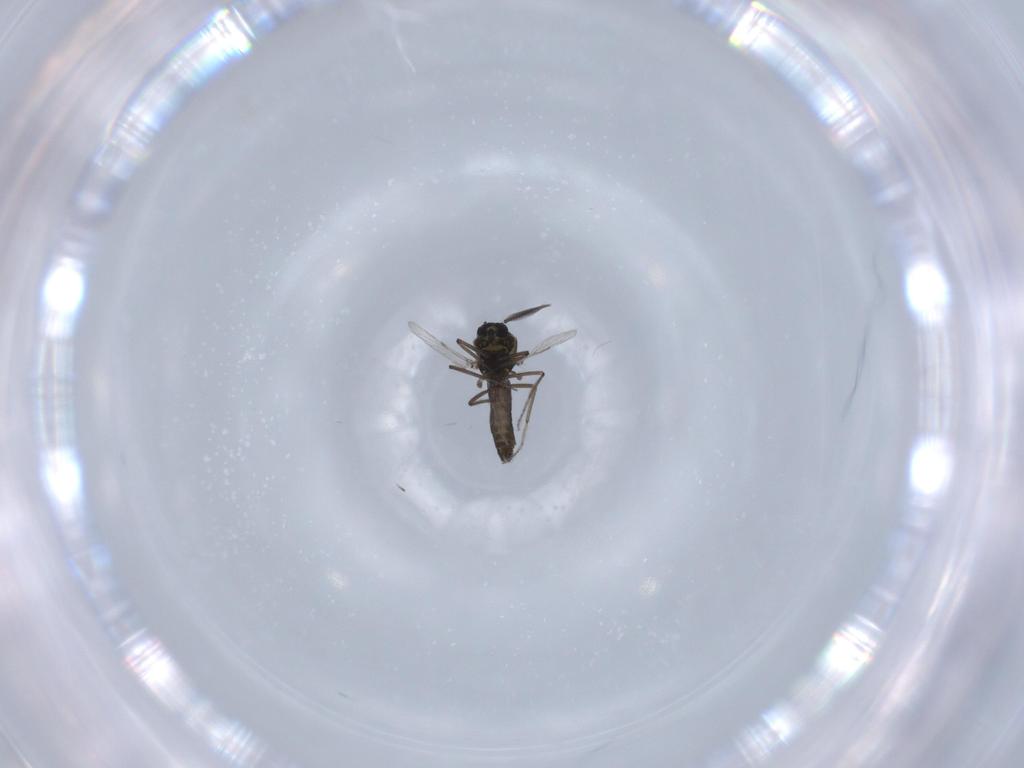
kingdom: Animalia
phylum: Arthropoda
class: Insecta
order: Diptera
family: Ceratopogonidae
